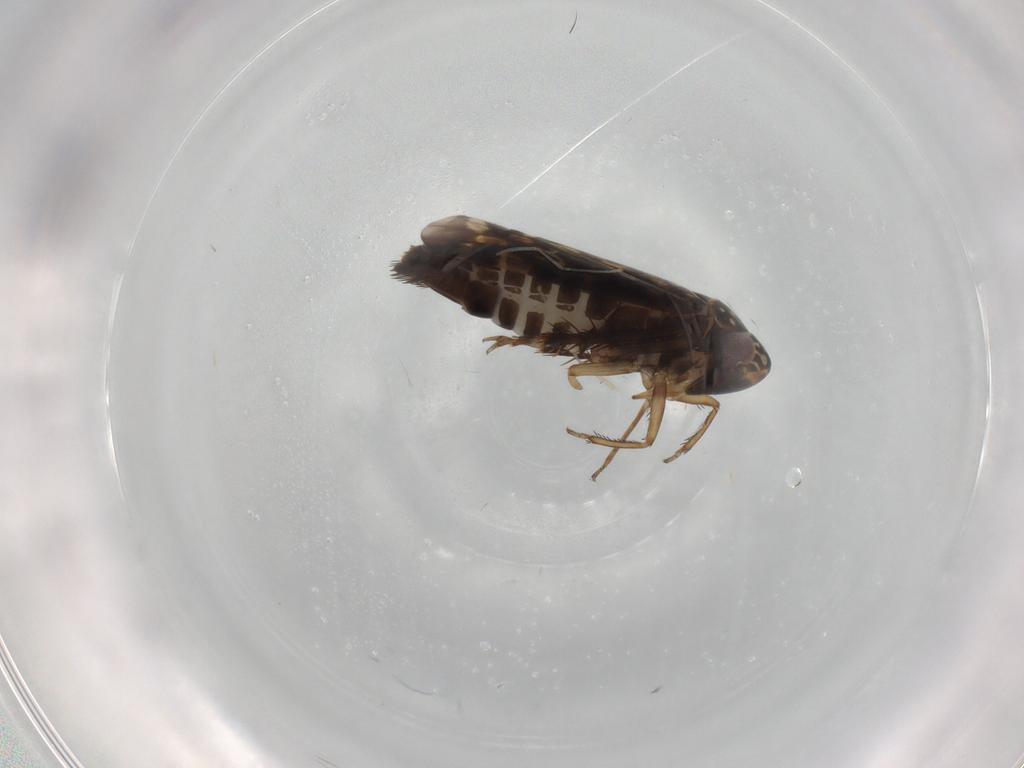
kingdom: Animalia
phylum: Arthropoda
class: Insecta
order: Hemiptera
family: Cicadellidae
